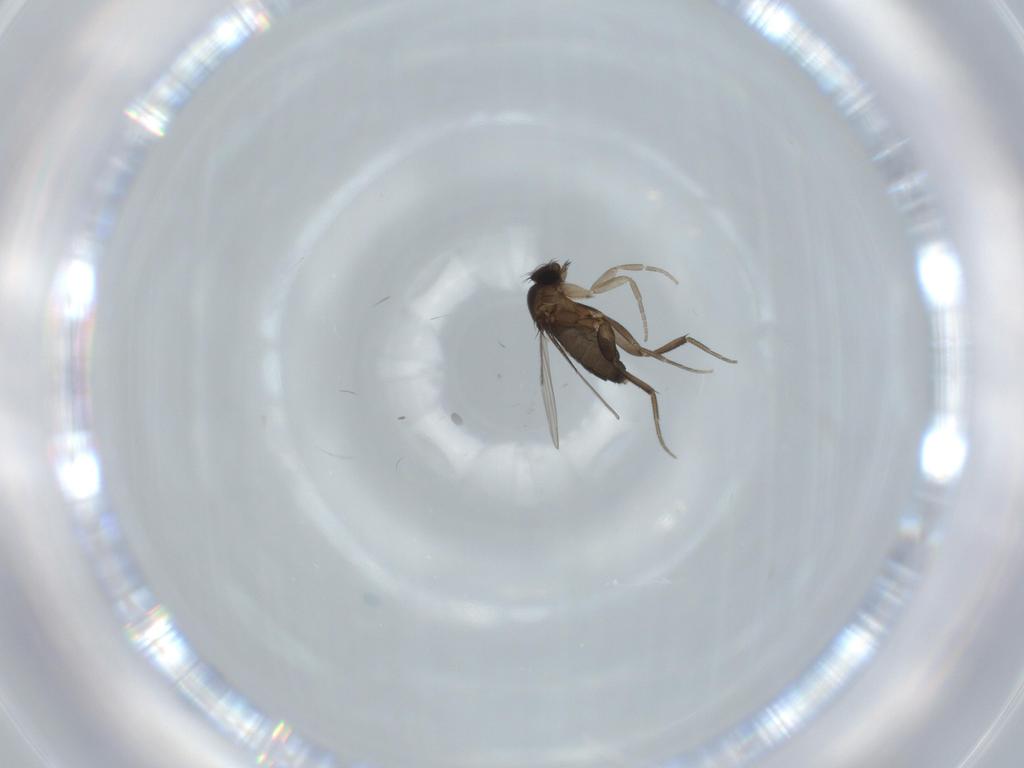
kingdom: Animalia
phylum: Arthropoda
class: Insecta
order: Diptera
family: Phoridae
